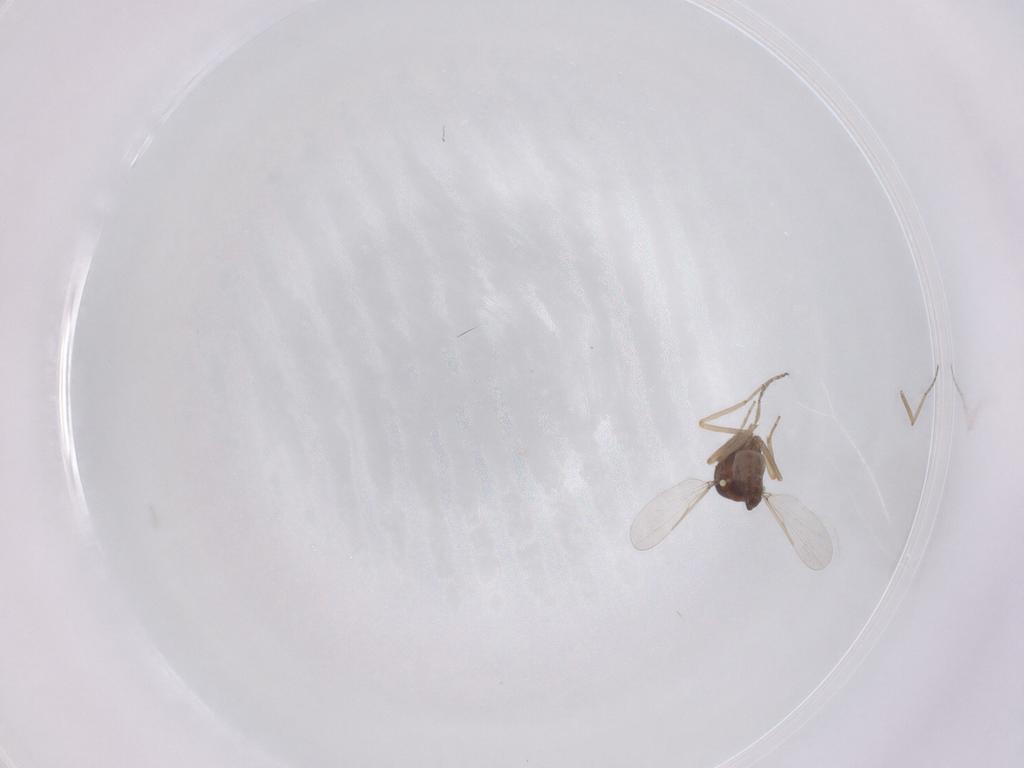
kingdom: Animalia
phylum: Arthropoda
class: Insecta
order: Diptera
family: Ceratopogonidae
